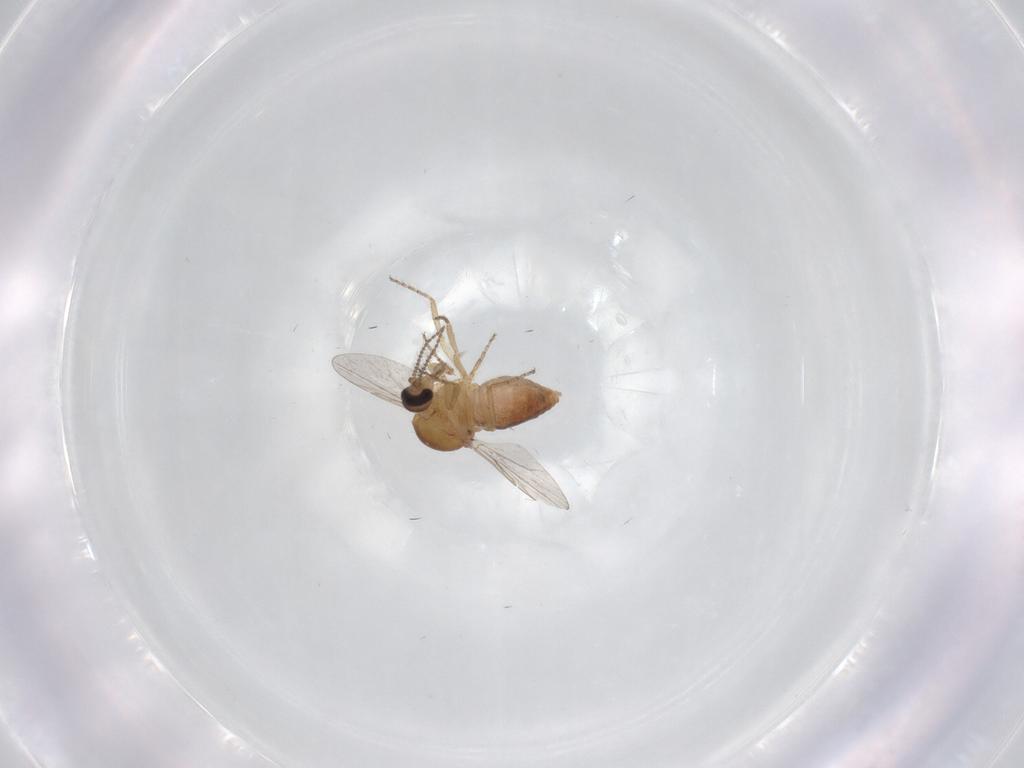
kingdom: Animalia
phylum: Arthropoda
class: Insecta
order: Diptera
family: Ceratopogonidae
